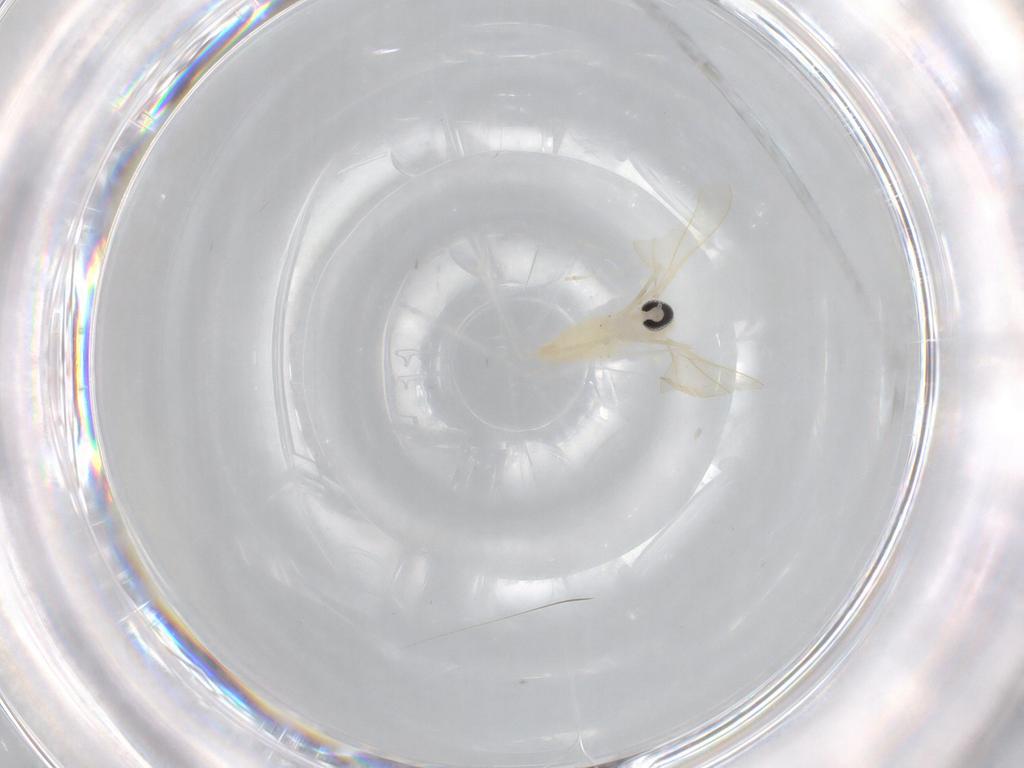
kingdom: Animalia
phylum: Arthropoda
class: Insecta
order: Diptera
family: Cecidomyiidae
